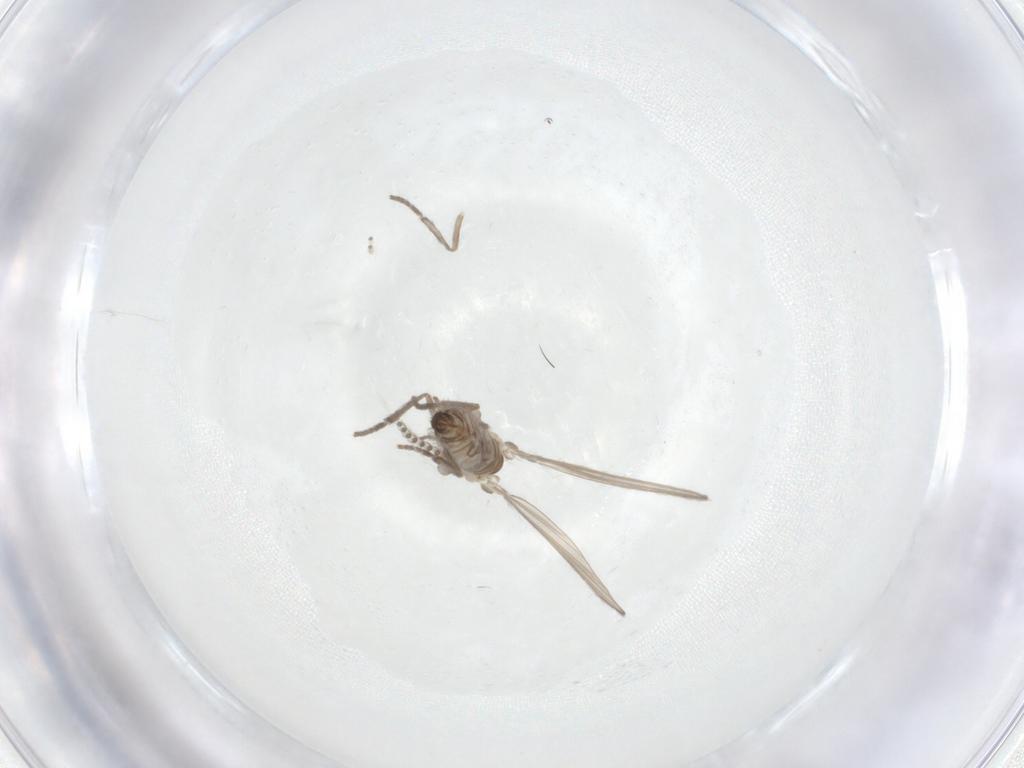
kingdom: Animalia
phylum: Arthropoda
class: Insecta
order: Diptera
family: Psychodidae
